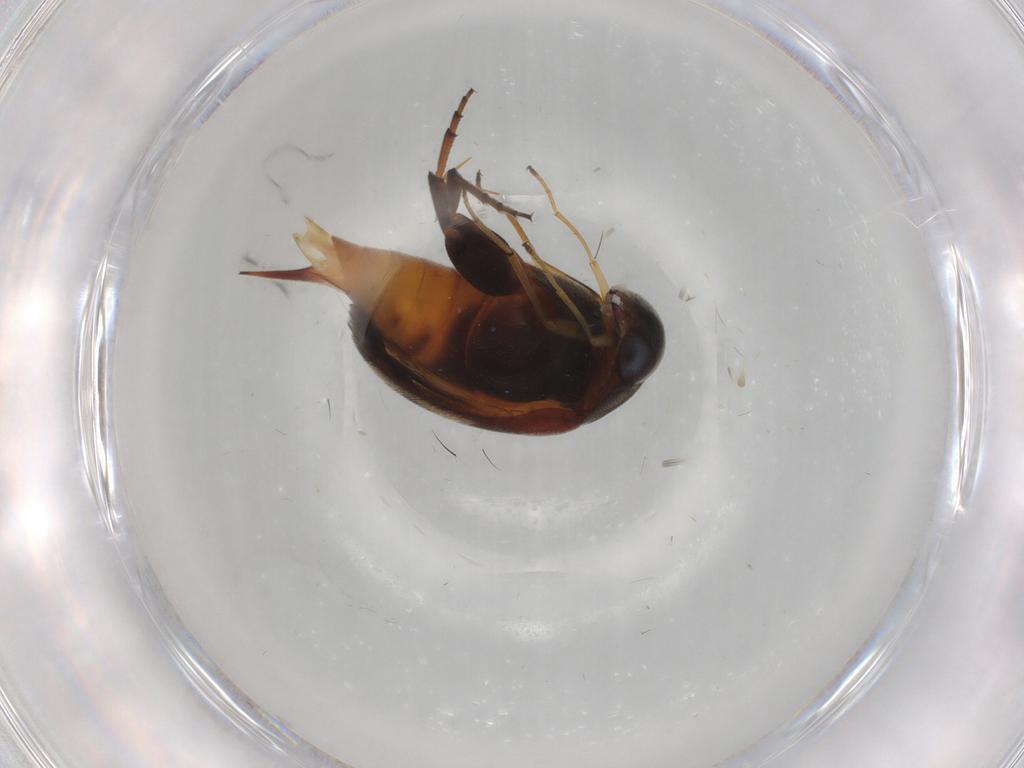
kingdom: Animalia
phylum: Arthropoda
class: Insecta
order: Coleoptera
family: Mordellidae
